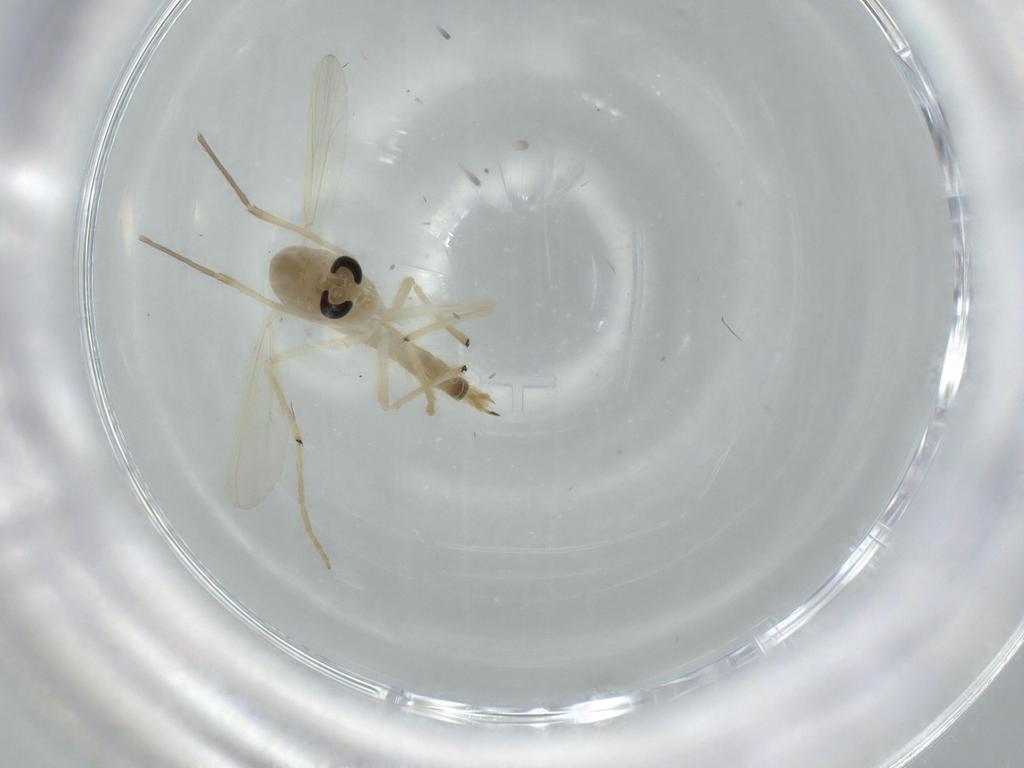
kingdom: Animalia
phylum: Arthropoda
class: Insecta
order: Diptera
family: Chironomidae
